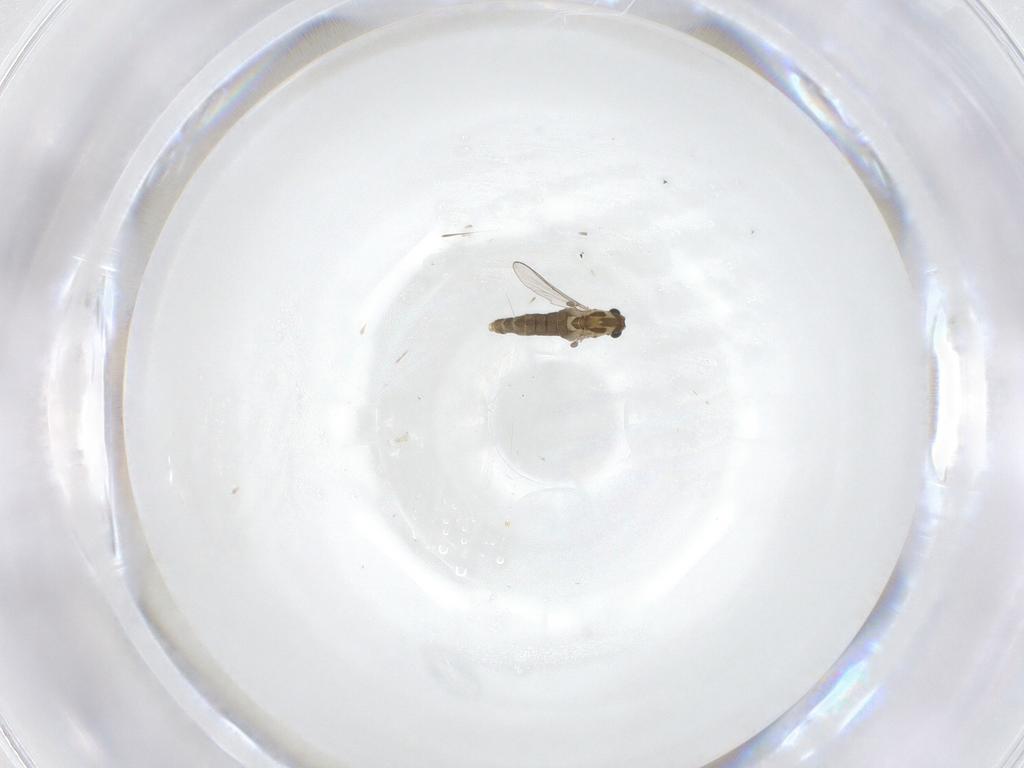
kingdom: Animalia
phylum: Arthropoda
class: Insecta
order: Diptera
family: Chironomidae
